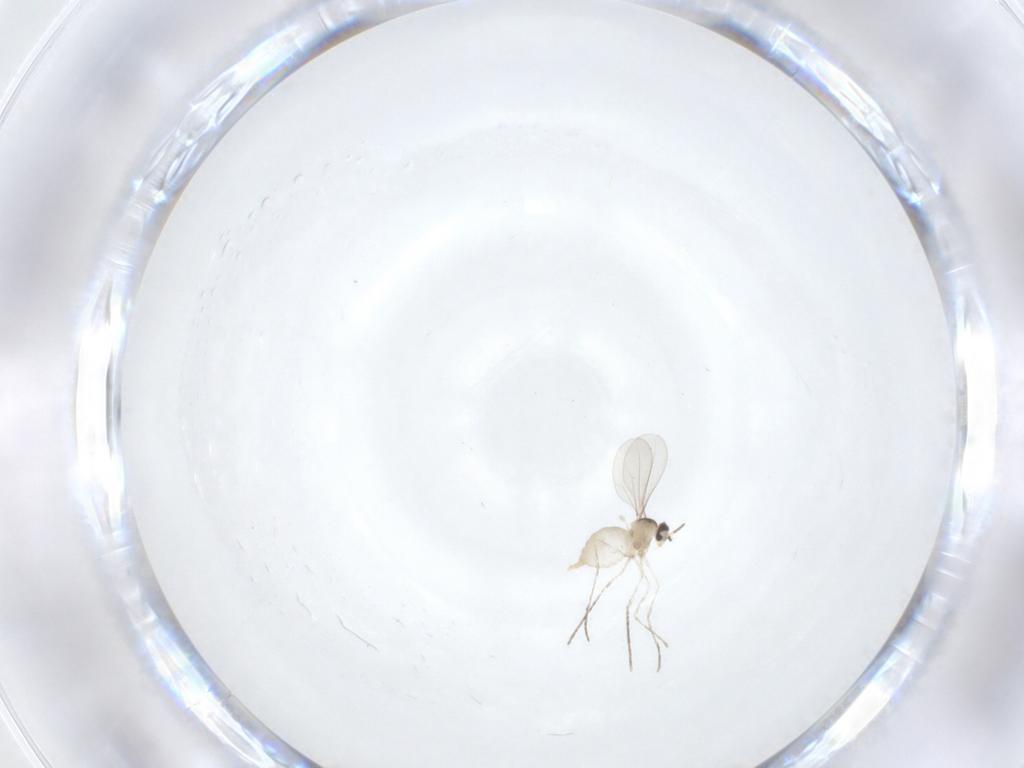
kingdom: Animalia
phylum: Arthropoda
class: Insecta
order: Diptera
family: Cecidomyiidae
